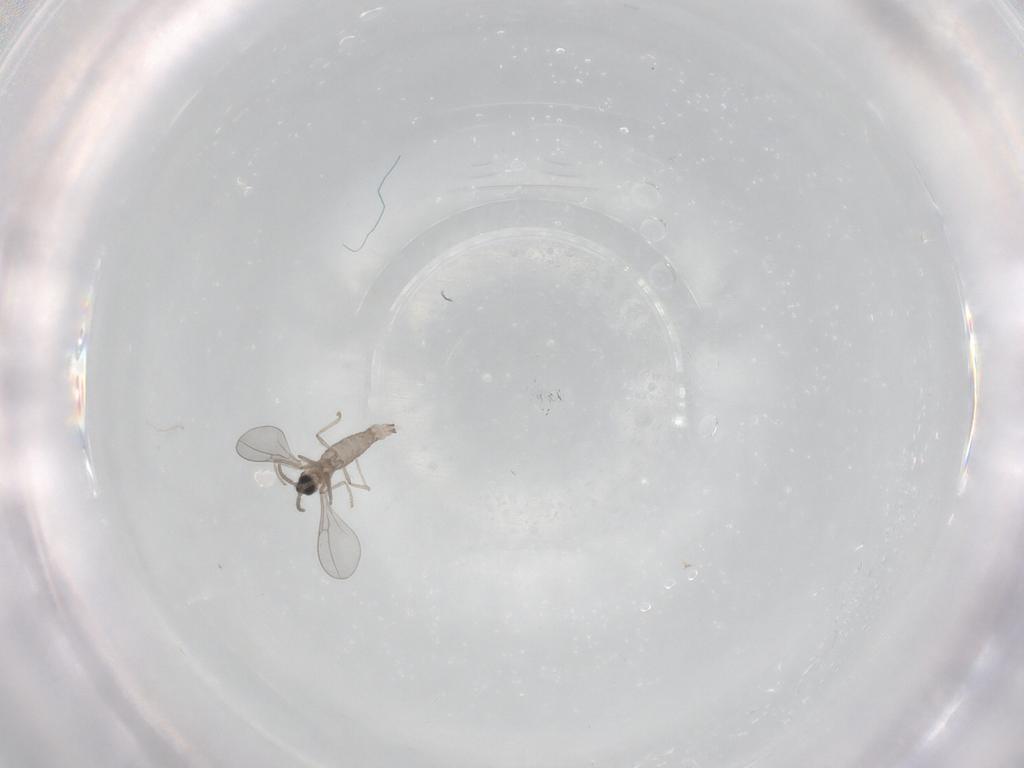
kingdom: Animalia
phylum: Arthropoda
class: Insecta
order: Diptera
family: Cecidomyiidae
